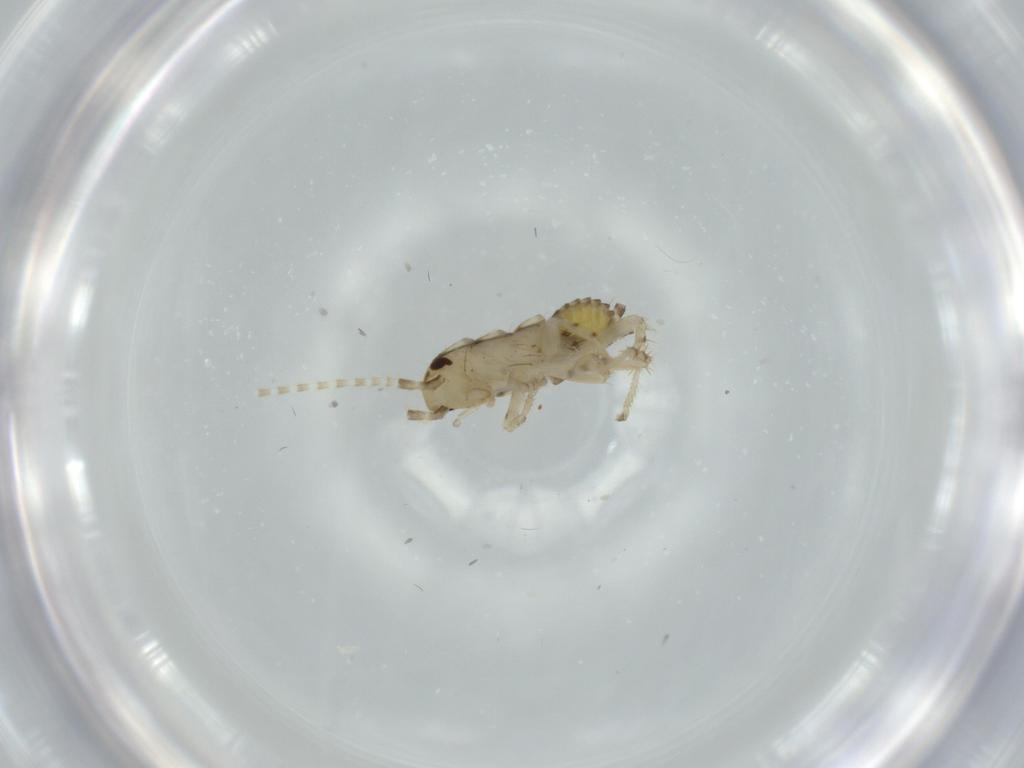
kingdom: Animalia
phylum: Arthropoda
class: Insecta
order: Blattodea
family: Ectobiidae
